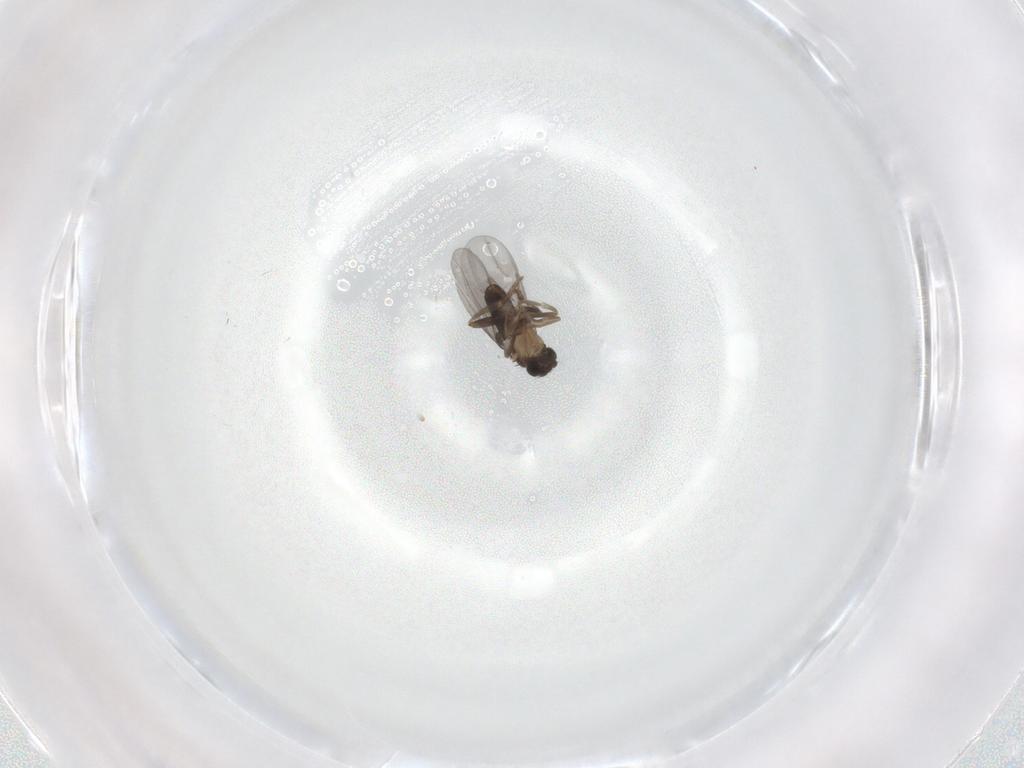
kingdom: Animalia
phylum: Arthropoda
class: Insecta
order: Diptera
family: Phoridae
